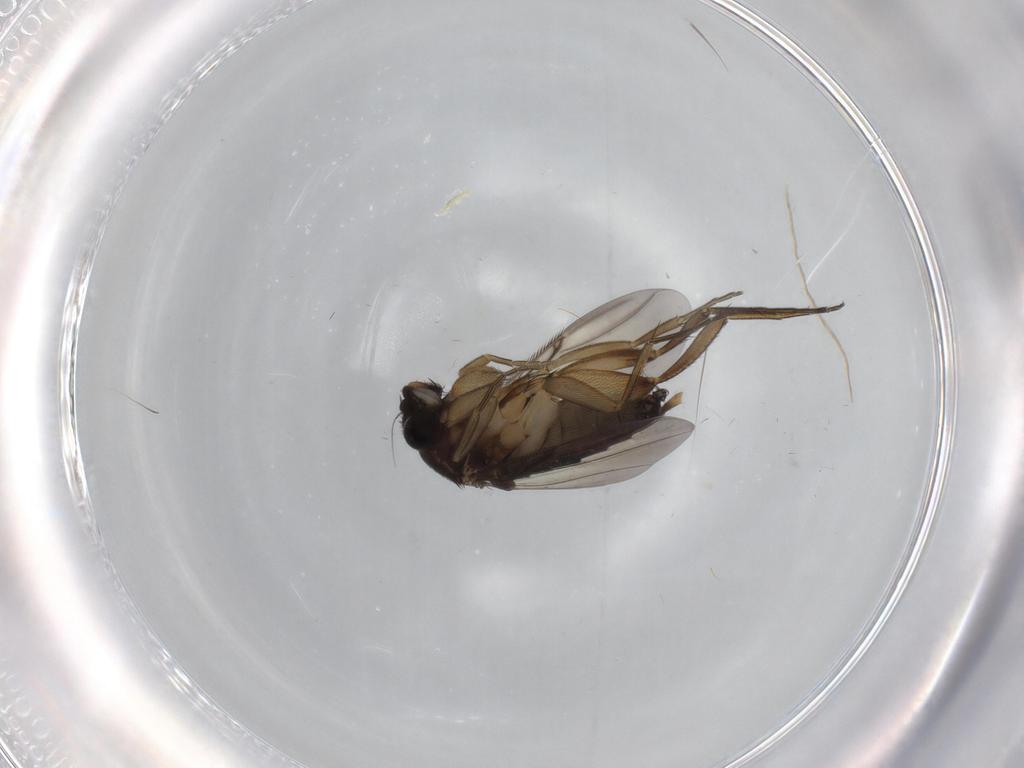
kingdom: Animalia
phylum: Arthropoda
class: Insecta
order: Diptera
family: Phoridae
